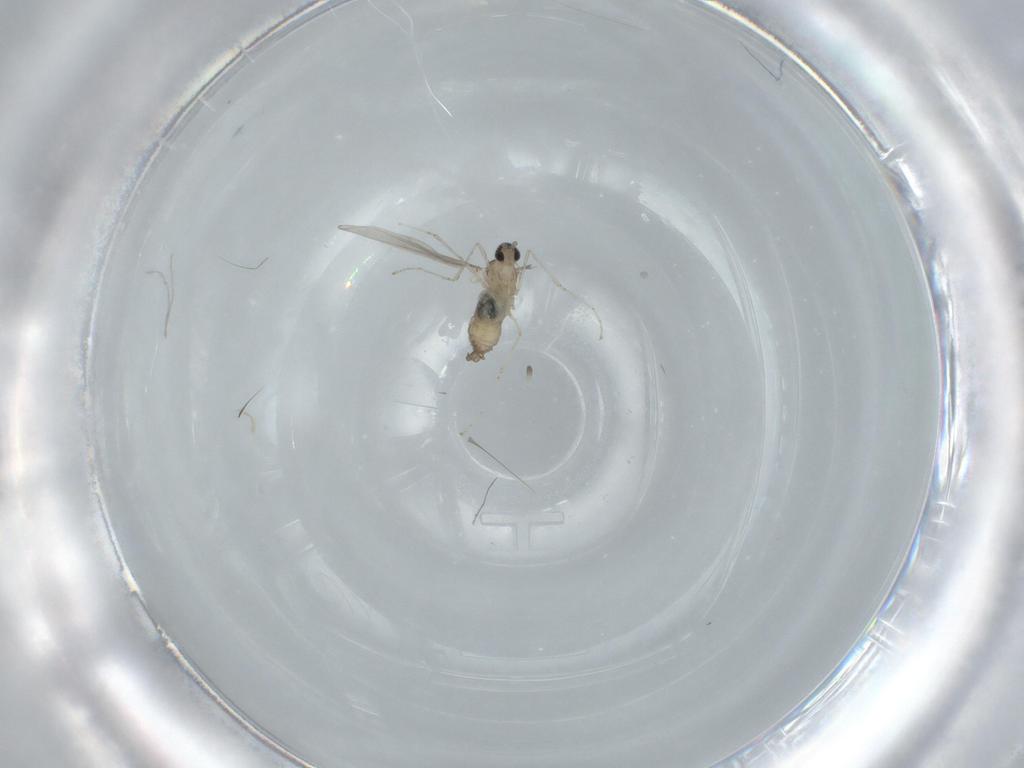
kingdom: Animalia
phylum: Arthropoda
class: Insecta
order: Diptera
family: Cecidomyiidae
